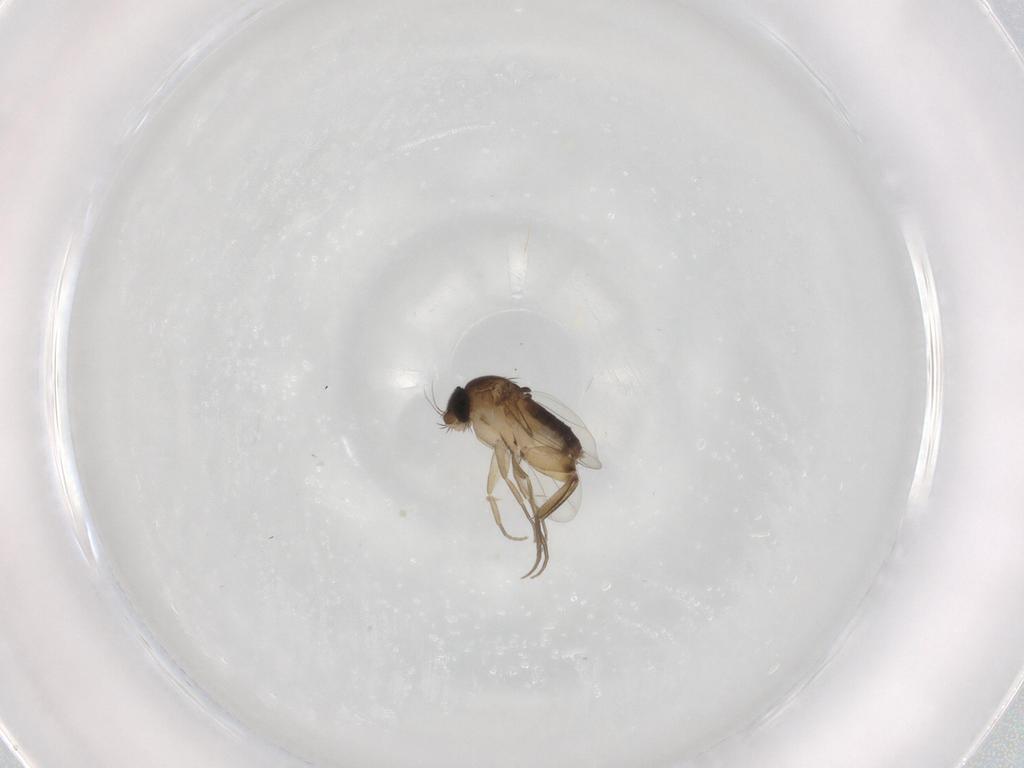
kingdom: Animalia
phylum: Arthropoda
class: Insecta
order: Diptera
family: Phoridae
